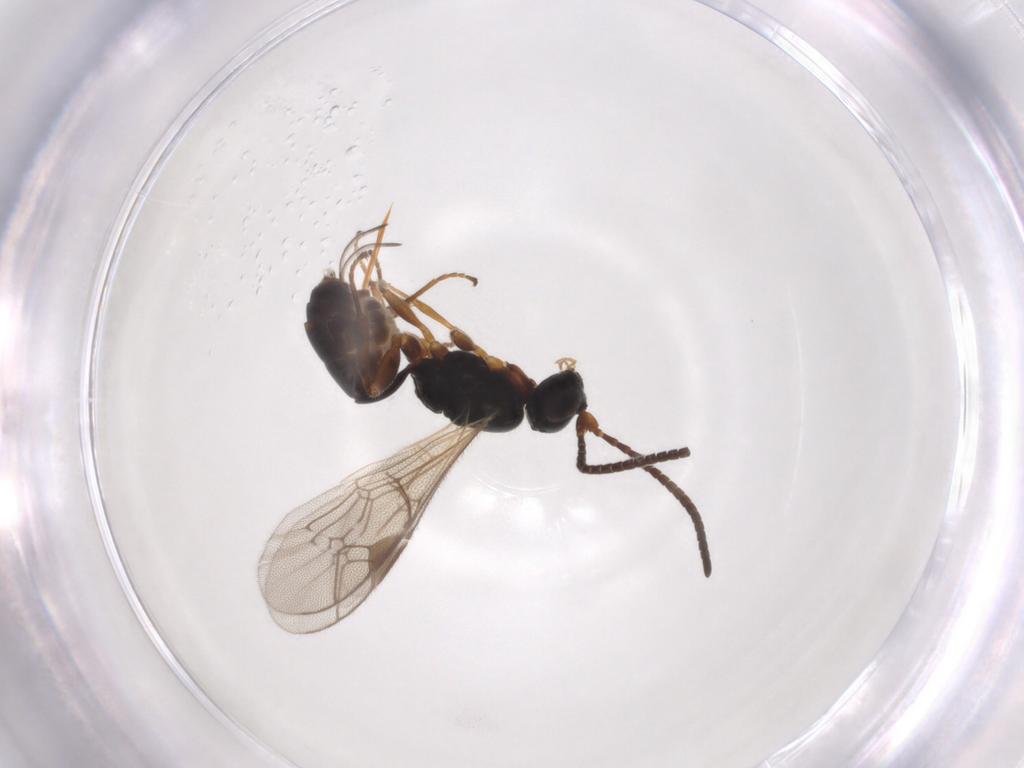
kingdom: Animalia
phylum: Arthropoda
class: Insecta
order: Hymenoptera
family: Ichneumonidae
